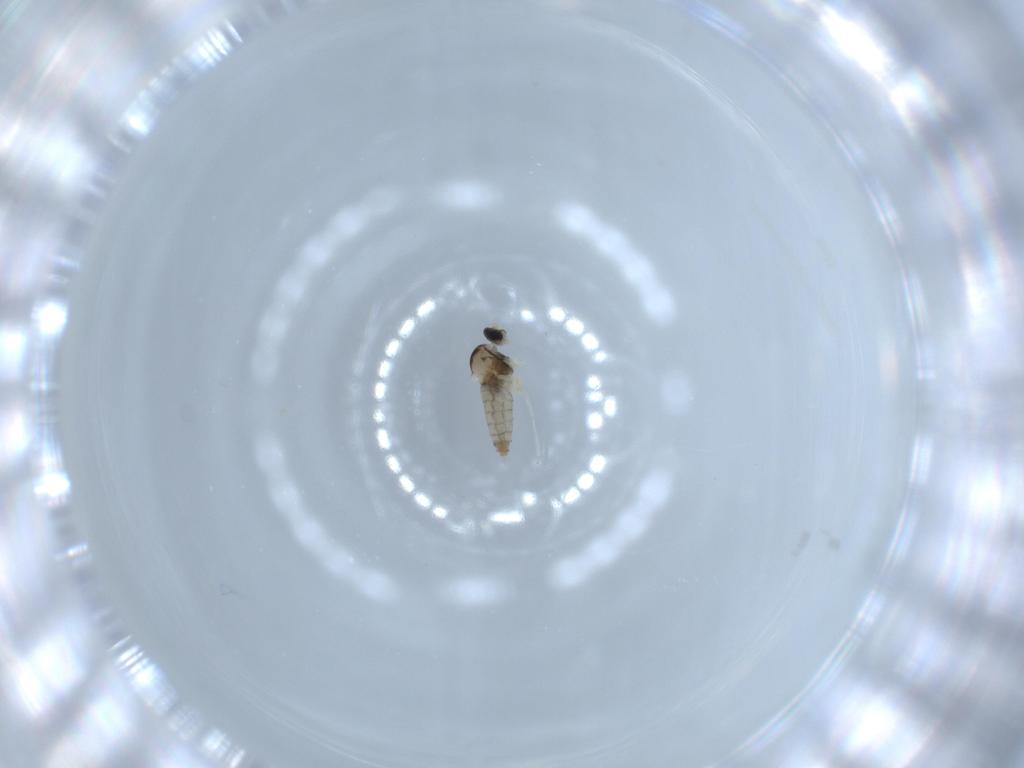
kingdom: Animalia
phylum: Arthropoda
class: Insecta
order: Diptera
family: Cecidomyiidae
